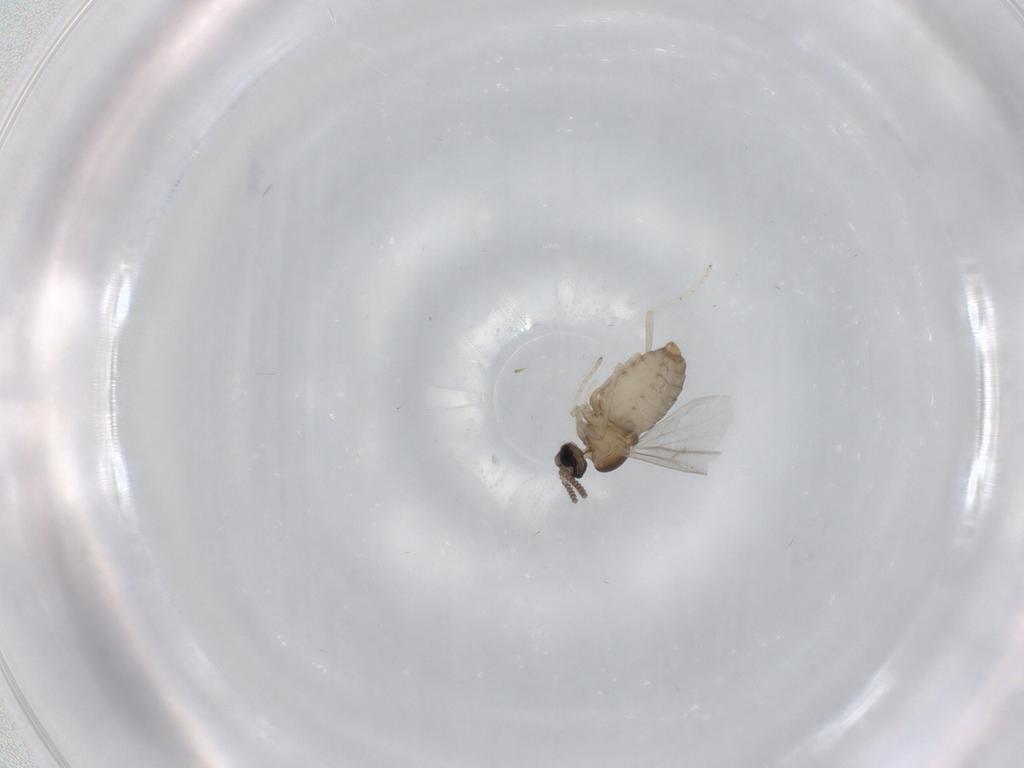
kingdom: Animalia
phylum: Arthropoda
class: Insecta
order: Diptera
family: Cecidomyiidae
